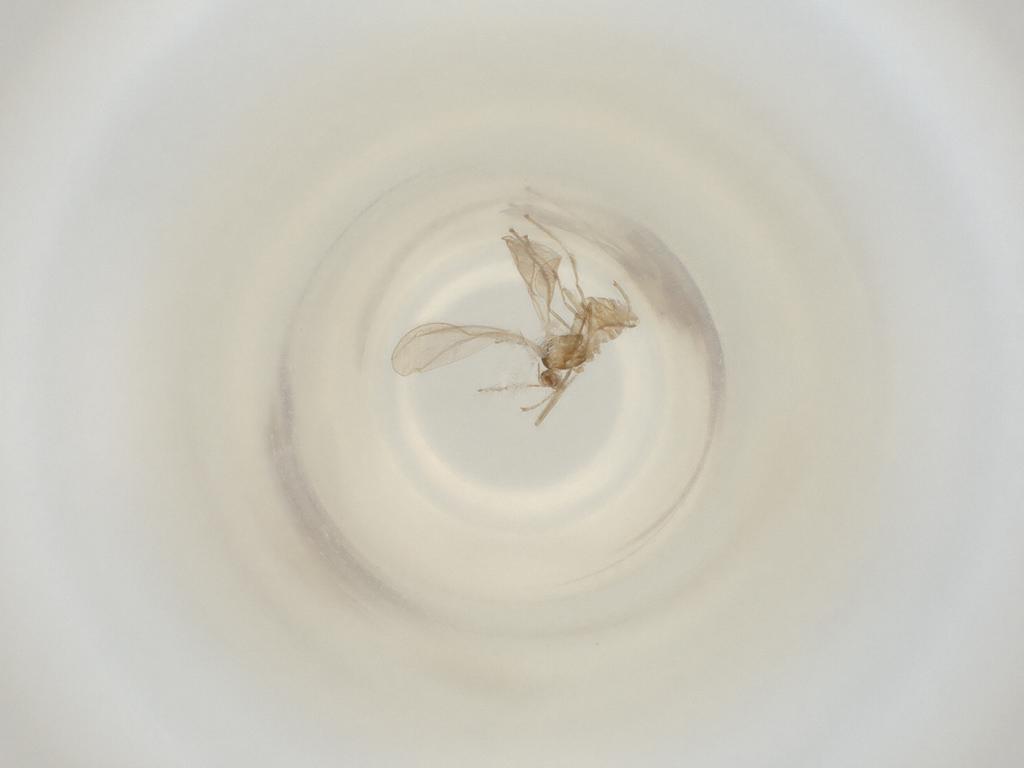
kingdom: Animalia
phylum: Arthropoda
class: Insecta
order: Diptera
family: Cecidomyiidae
